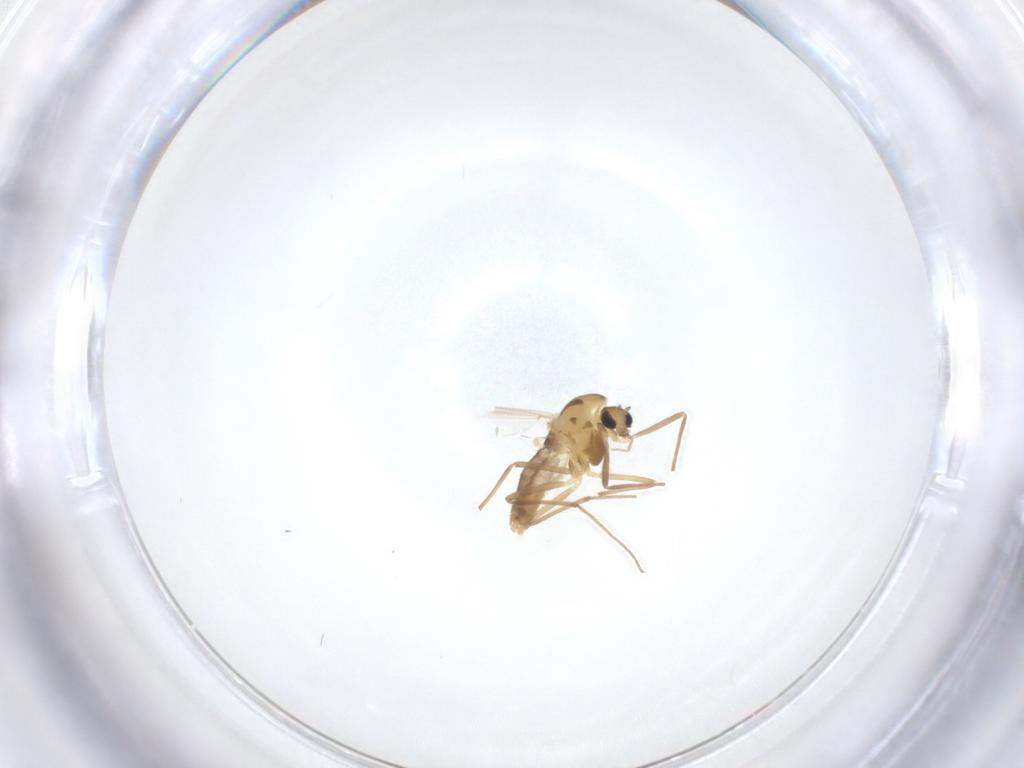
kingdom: Animalia
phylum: Arthropoda
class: Insecta
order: Diptera
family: Chironomidae
